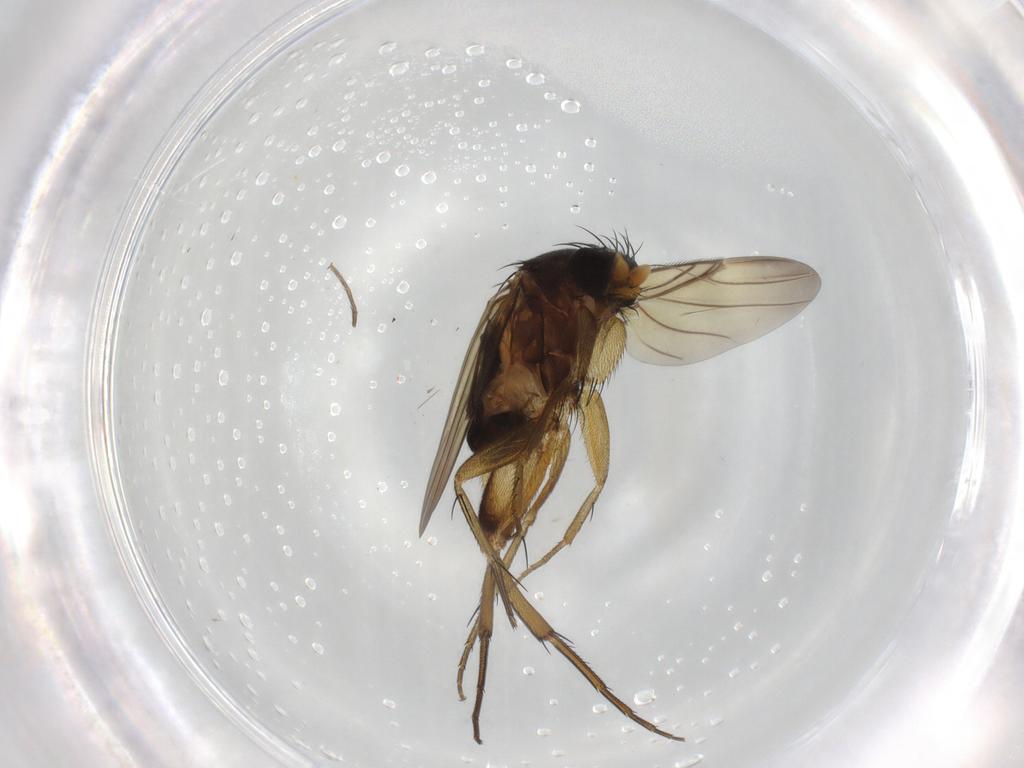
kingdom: Animalia
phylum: Arthropoda
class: Insecta
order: Diptera
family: Phoridae
